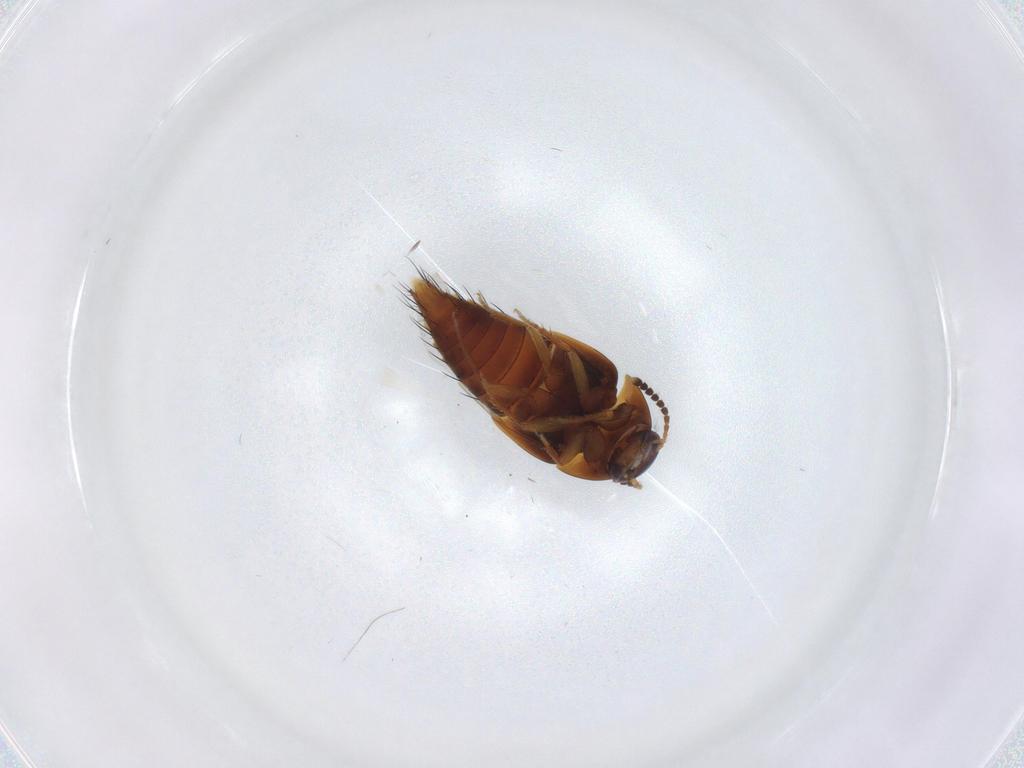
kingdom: Animalia
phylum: Arthropoda
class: Insecta
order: Coleoptera
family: Staphylinidae
